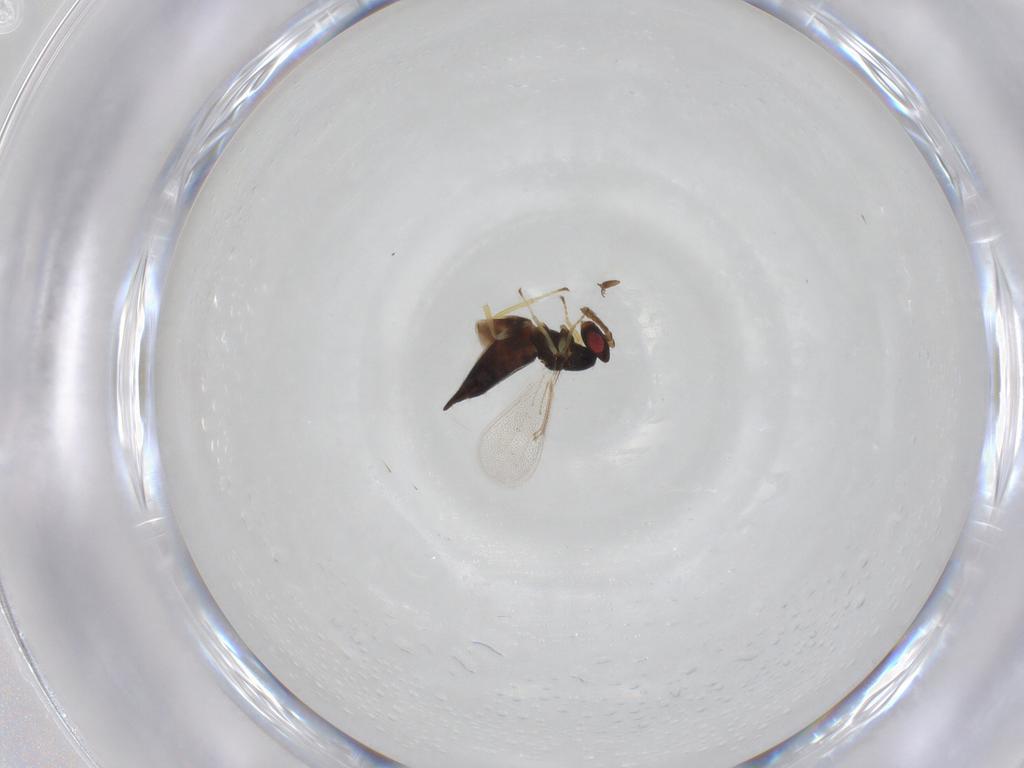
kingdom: Animalia
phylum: Arthropoda
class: Insecta
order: Hymenoptera
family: Eulophidae
